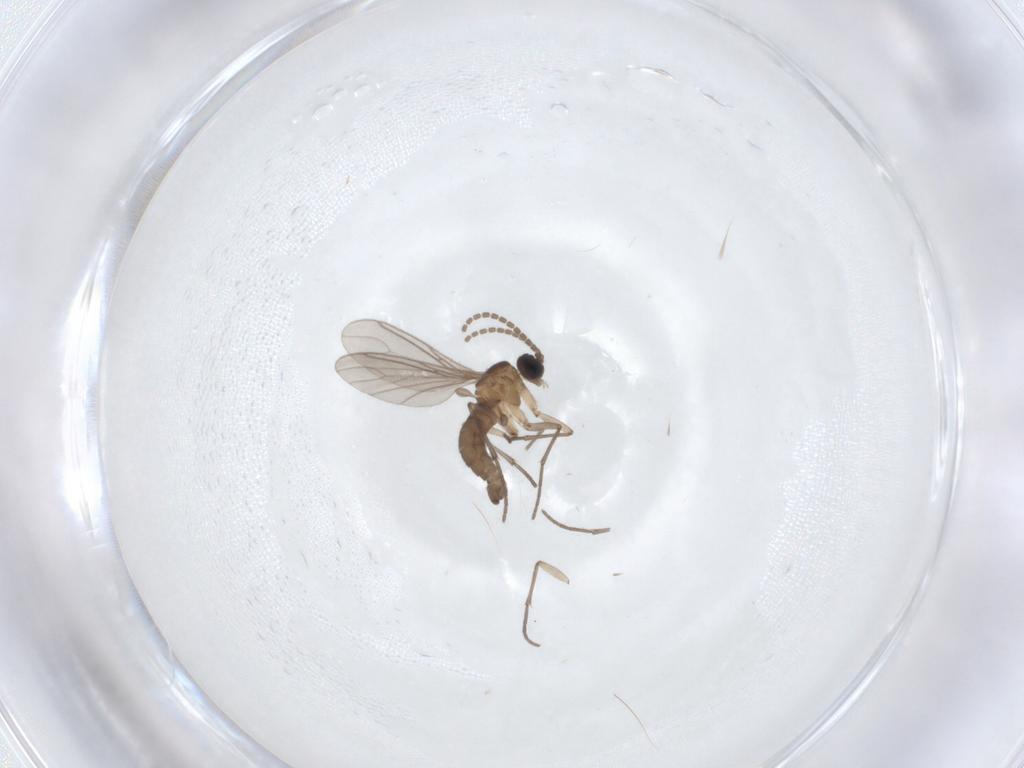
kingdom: Animalia
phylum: Arthropoda
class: Insecta
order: Diptera
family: Sciaridae
